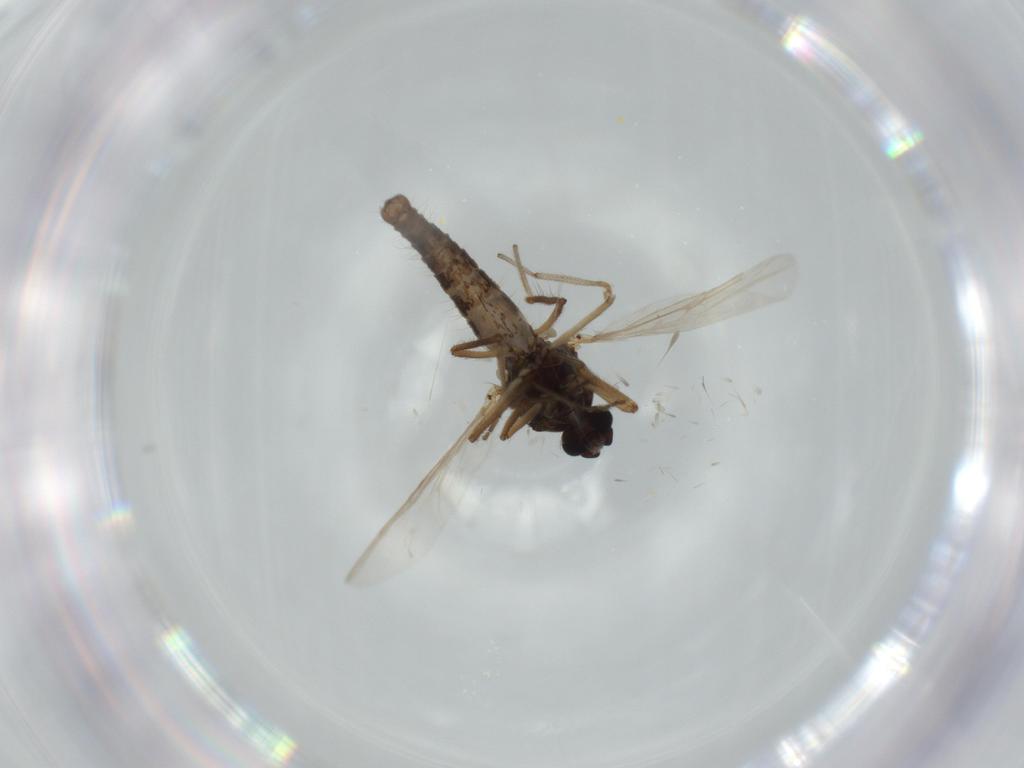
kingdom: Animalia
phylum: Arthropoda
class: Insecta
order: Diptera
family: Ceratopogonidae
